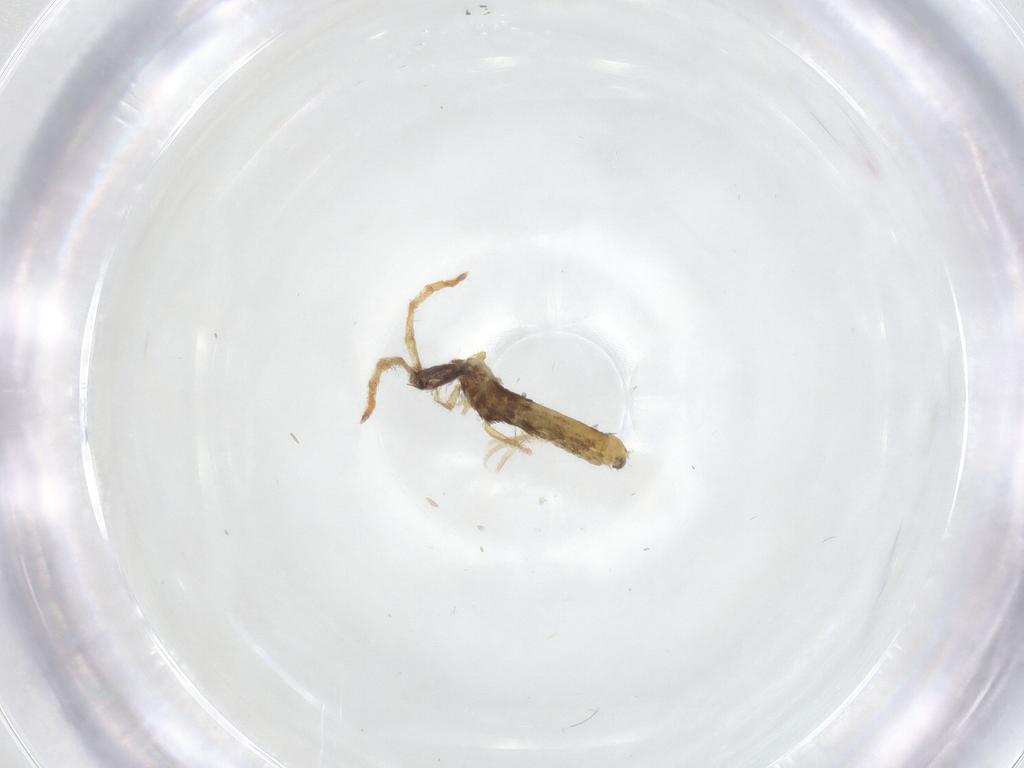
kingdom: Animalia
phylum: Arthropoda
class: Collembola
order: Entomobryomorpha
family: Entomobryidae
